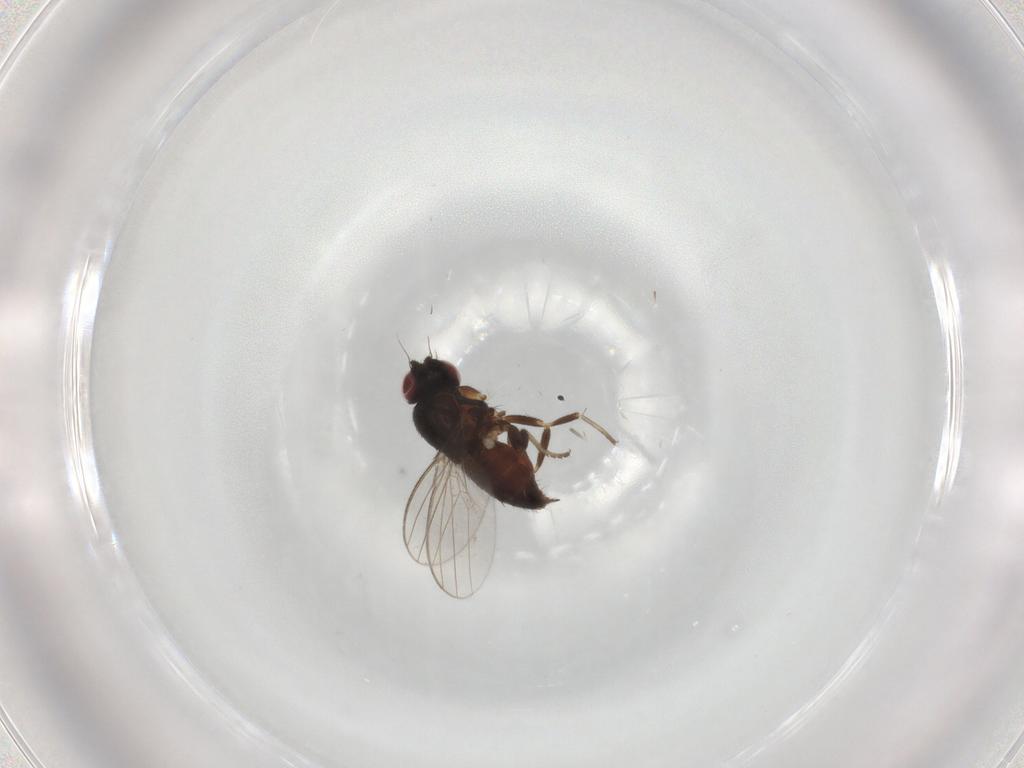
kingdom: Animalia
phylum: Arthropoda
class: Insecta
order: Diptera
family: Milichiidae
